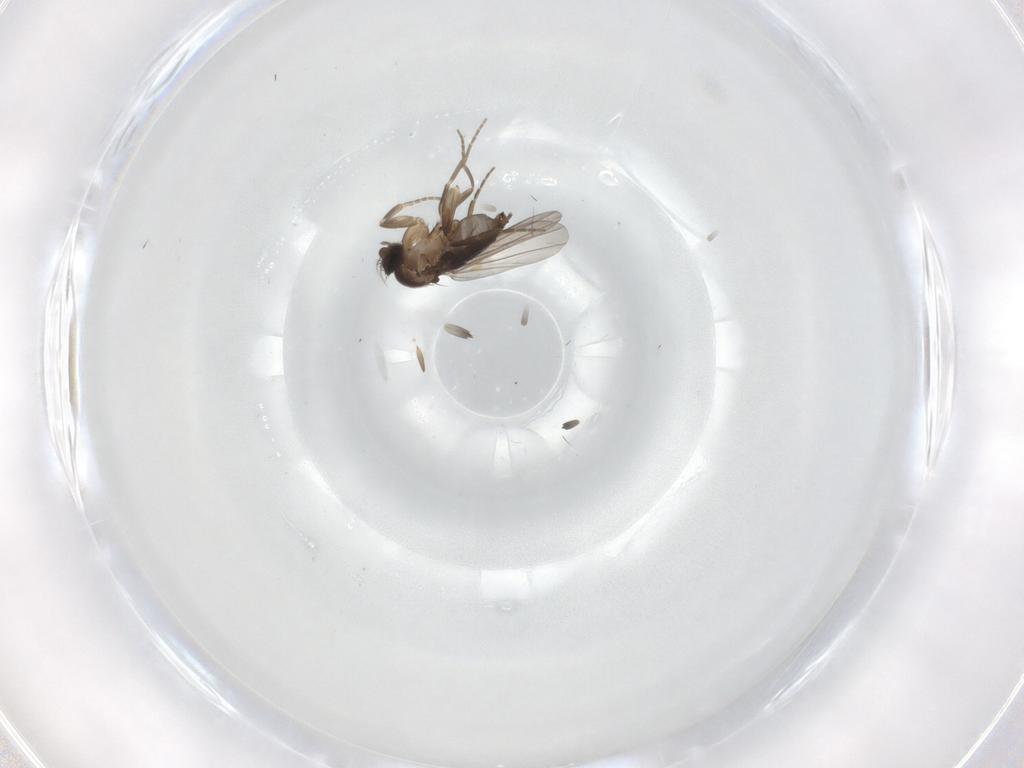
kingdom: Animalia
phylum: Arthropoda
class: Insecta
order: Diptera
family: Phoridae
